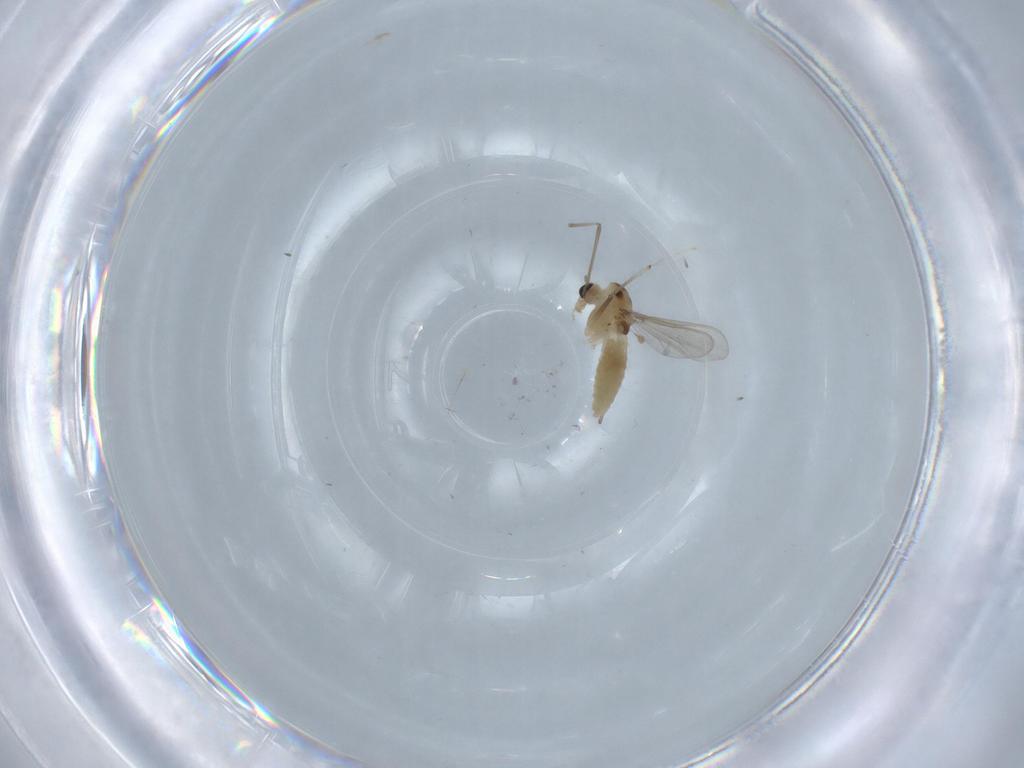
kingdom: Animalia
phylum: Arthropoda
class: Insecta
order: Diptera
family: Chironomidae
